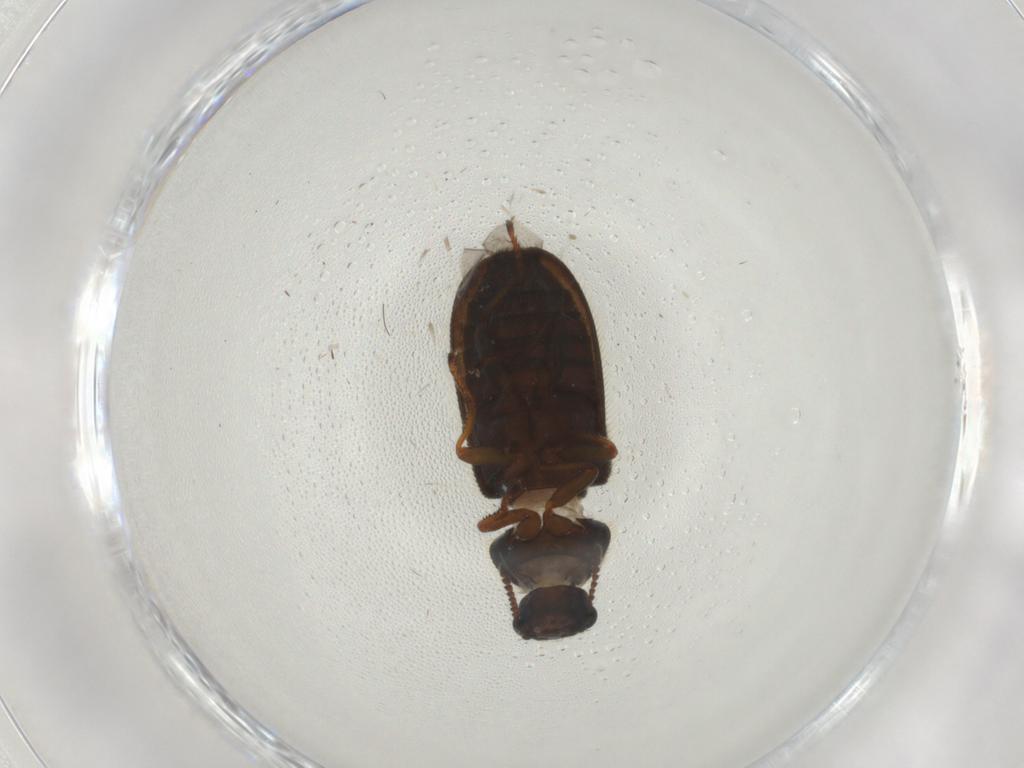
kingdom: Animalia
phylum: Arthropoda
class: Insecta
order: Coleoptera
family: Melyridae
